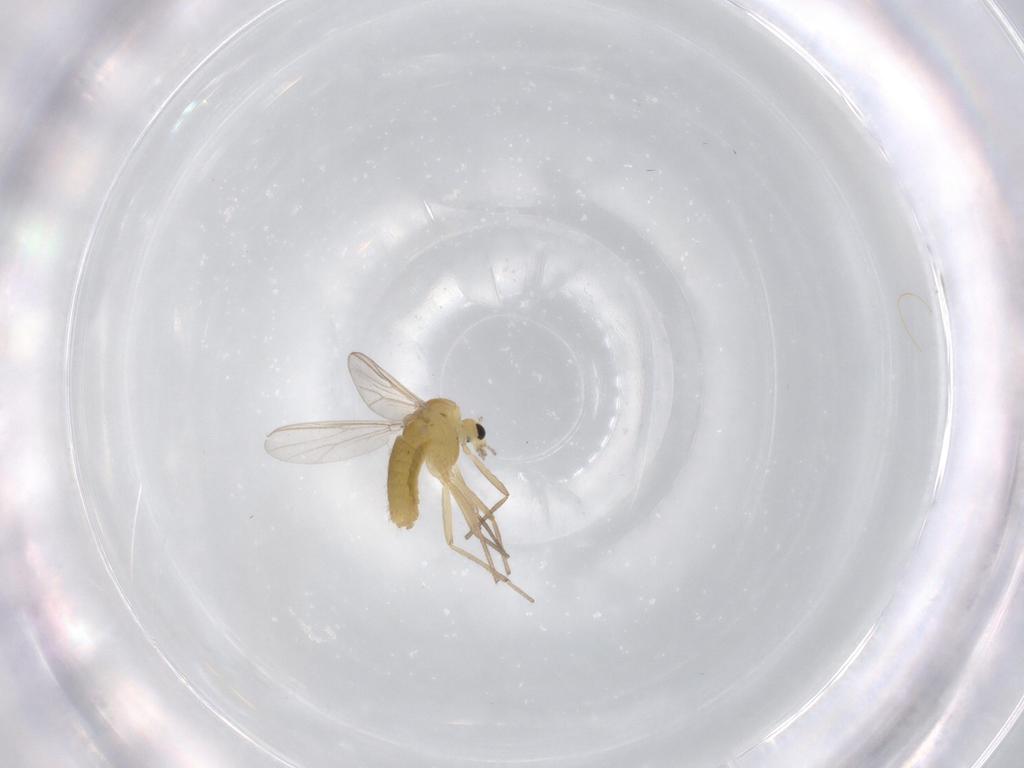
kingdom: Animalia
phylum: Arthropoda
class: Insecta
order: Diptera
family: Chironomidae
